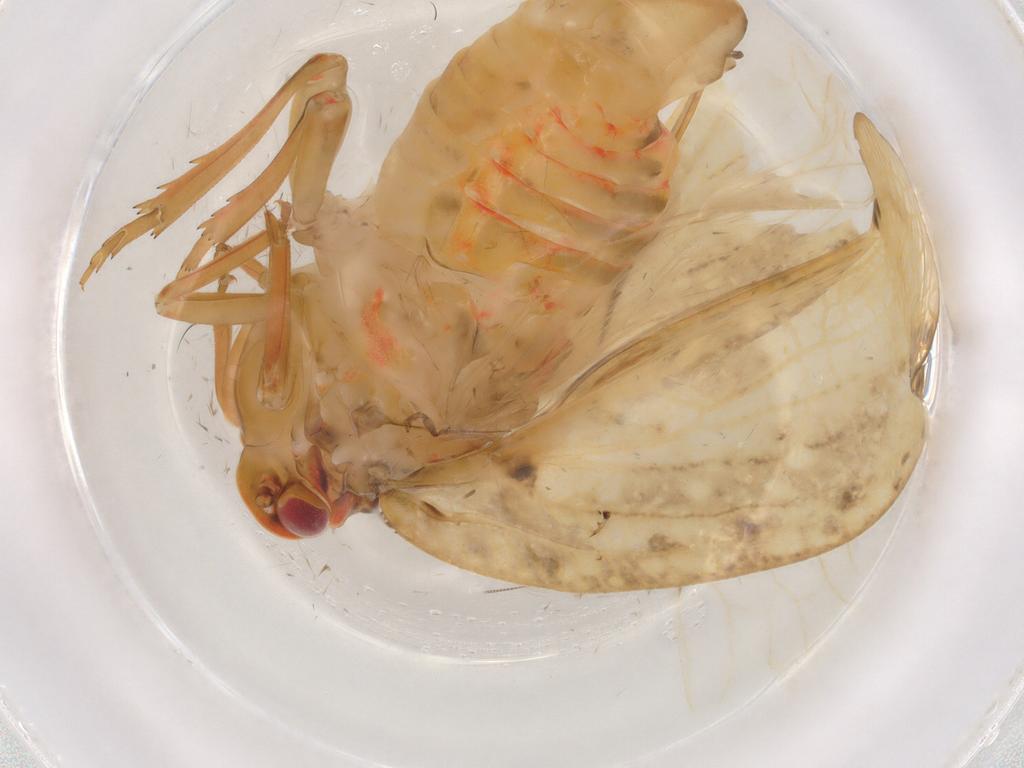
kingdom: Animalia
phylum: Arthropoda
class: Insecta
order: Hemiptera
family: Flatidae
